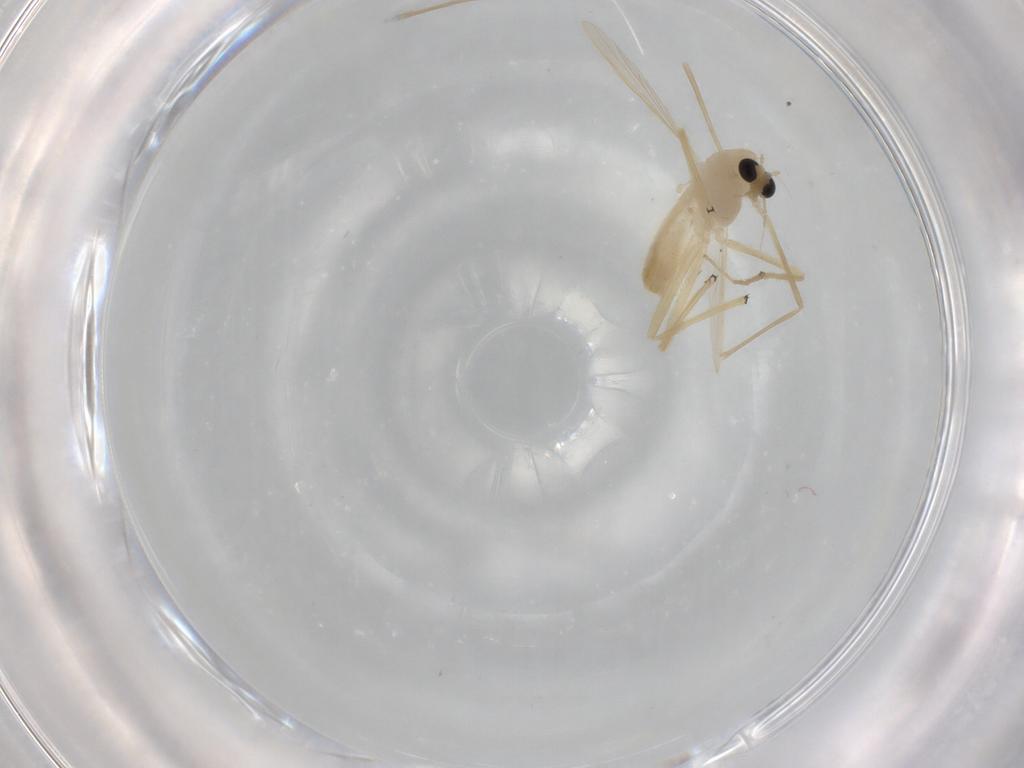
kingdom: Animalia
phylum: Arthropoda
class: Insecta
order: Diptera
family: Chironomidae
